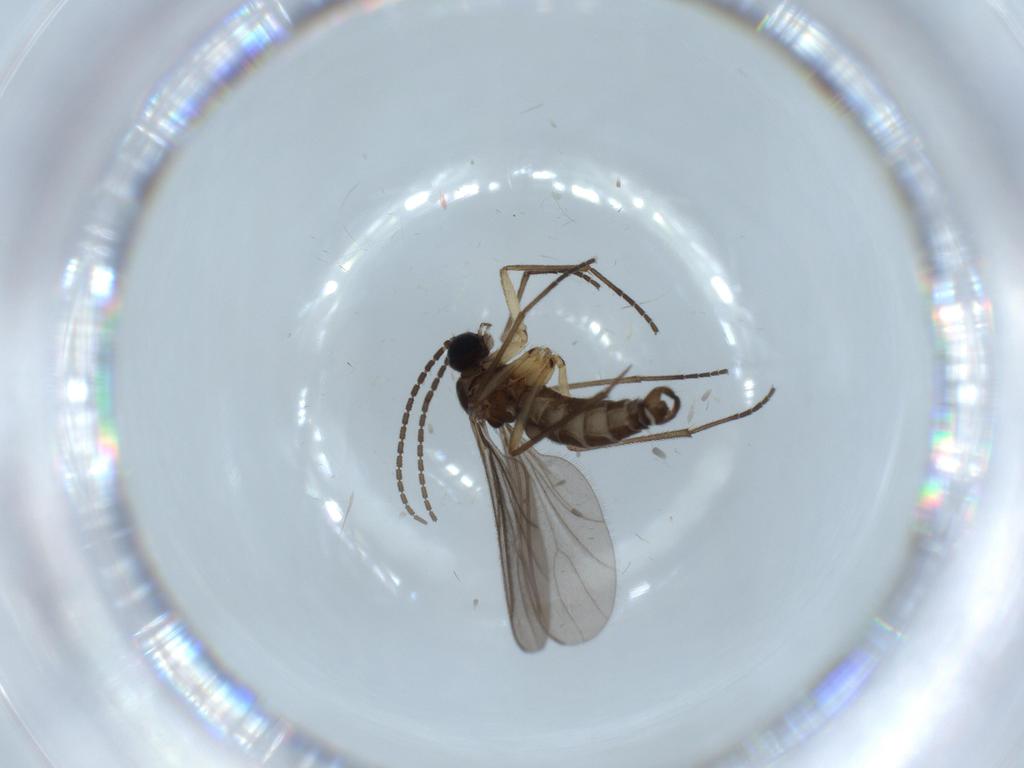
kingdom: Animalia
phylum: Arthropoda
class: Insecta
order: Diptera
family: Sciaridae
